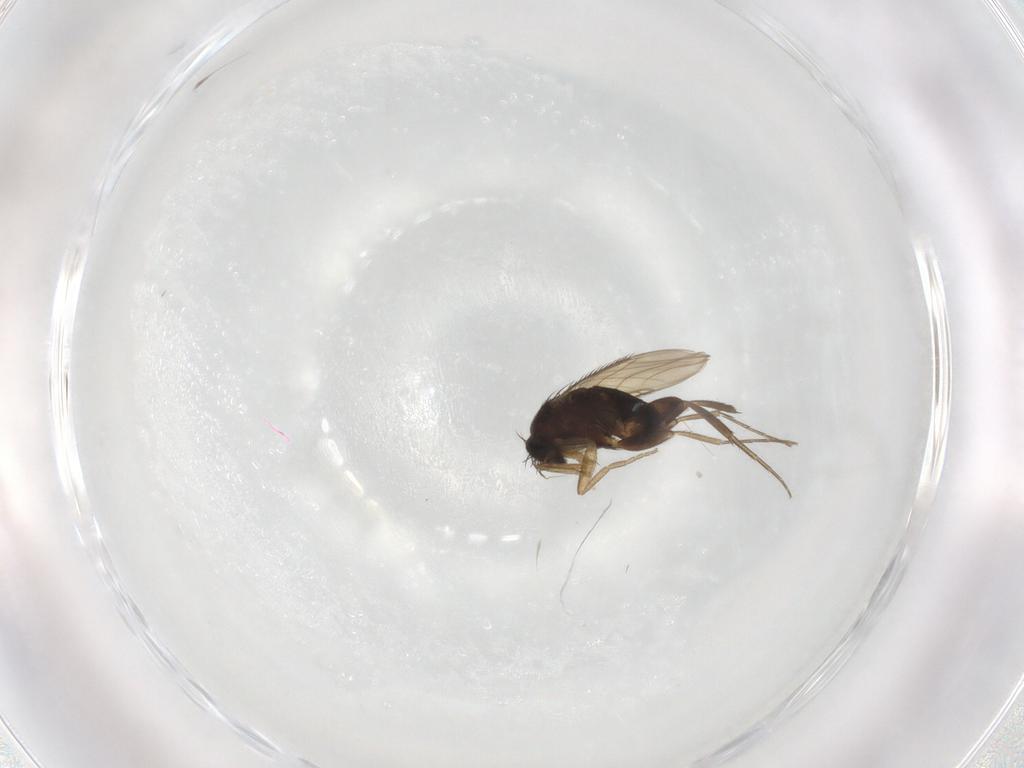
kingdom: Animalia
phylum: Arthropoda
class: Insecta
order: Diptera
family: Phoridae
